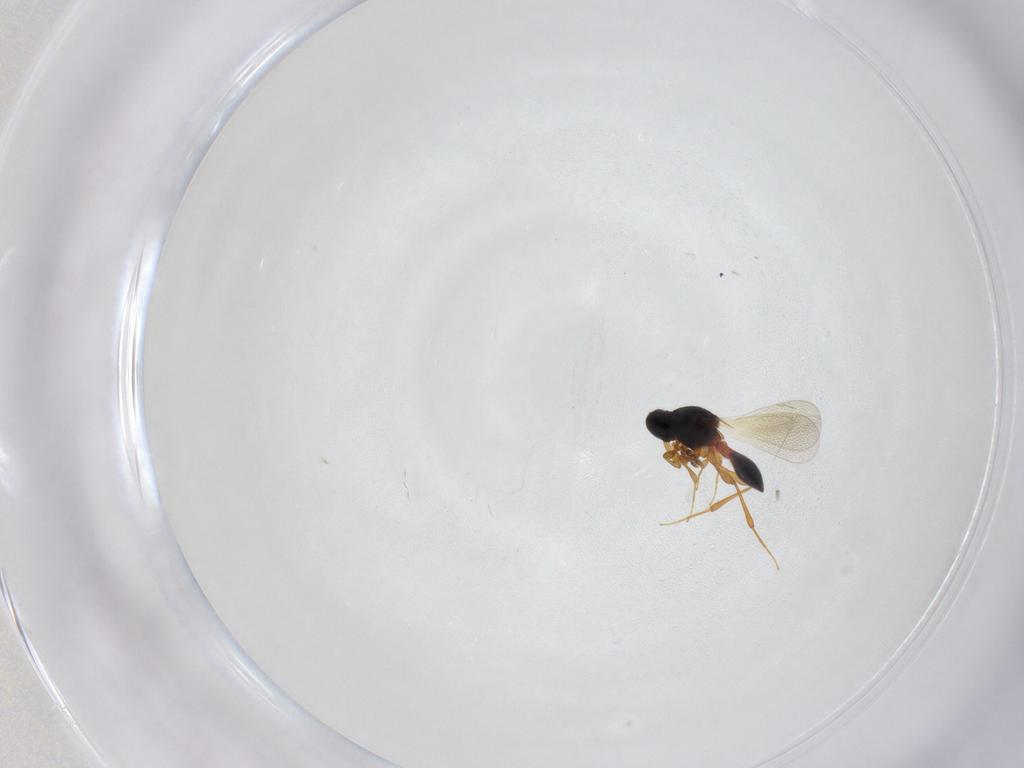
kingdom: Animalia
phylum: Arthropoda
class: Insecta
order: Hymenoptera
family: Platygastridae
